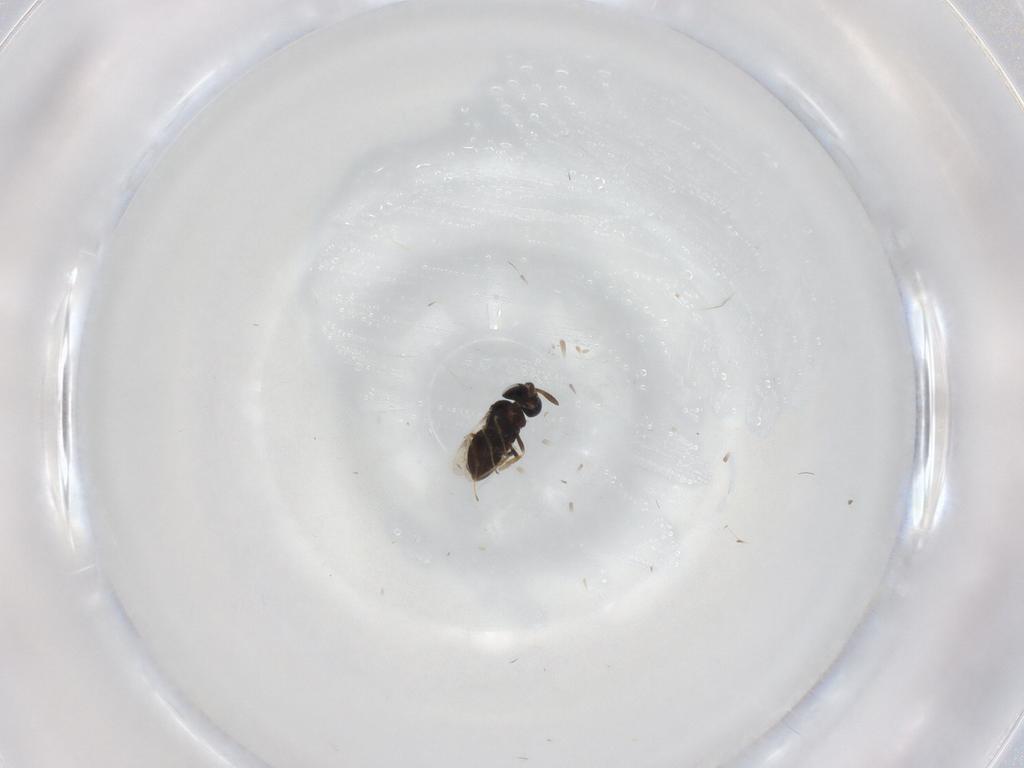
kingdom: Animalia
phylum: Arthropoda
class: Insecta
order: Hymenoptera
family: Scelionidae
